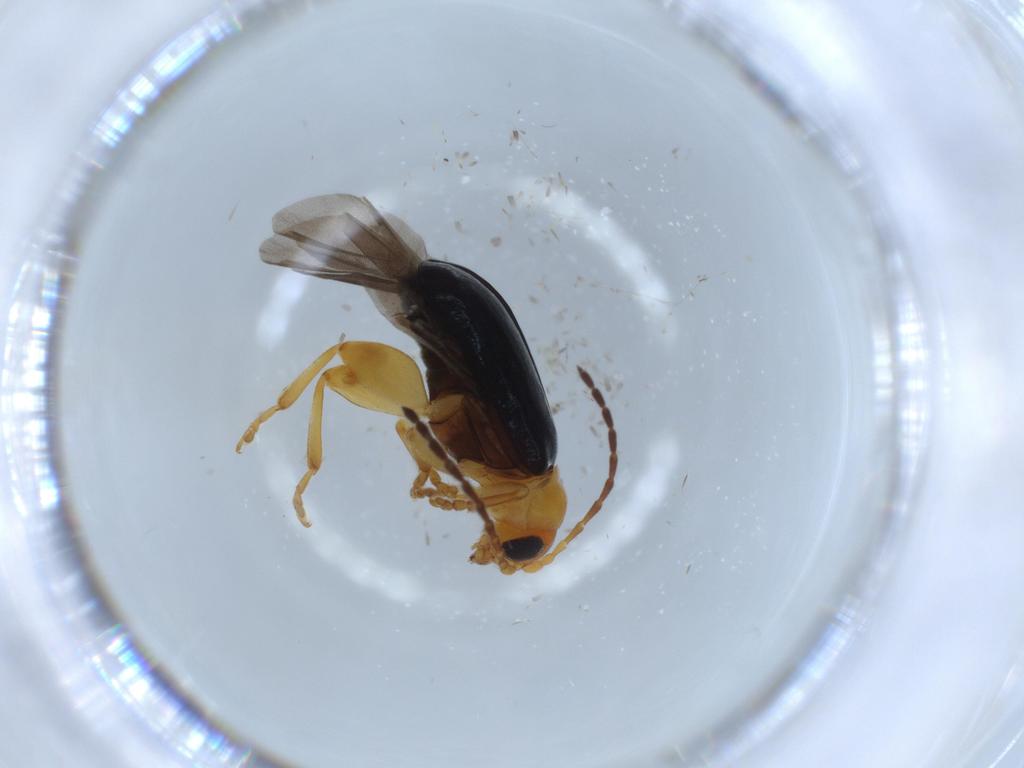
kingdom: Animalia
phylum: Arthropoda
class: Insecta
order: Coleoptera
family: Chrysomelidae
